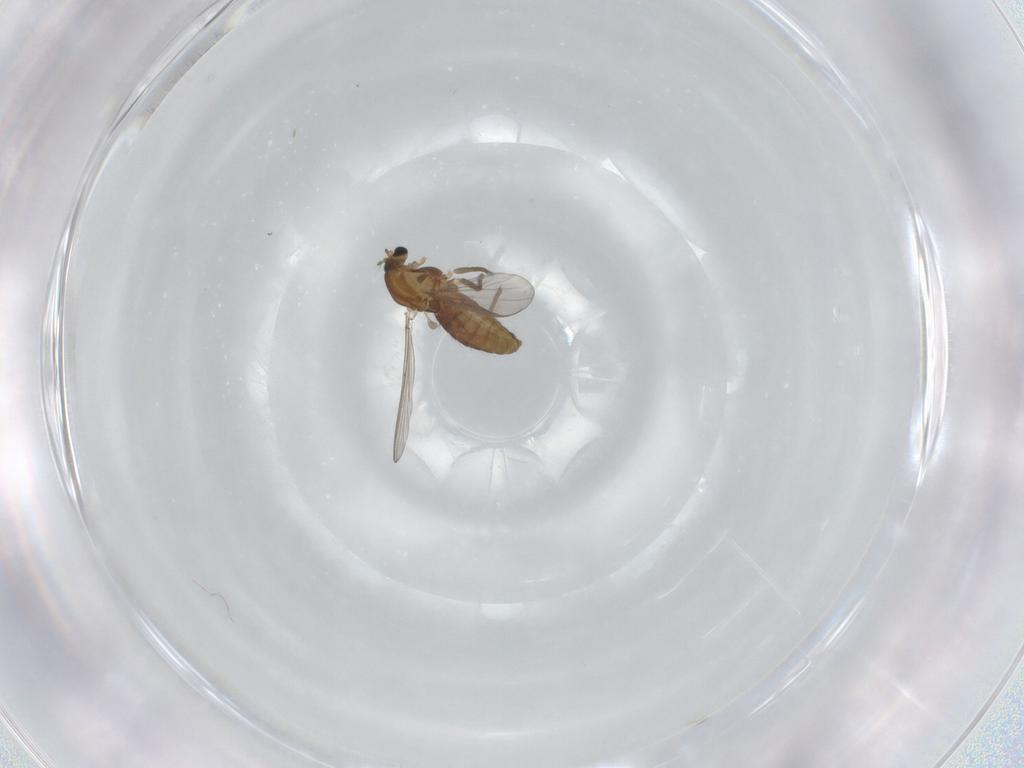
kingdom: Animalia
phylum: Arthropoda
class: Insecta
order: Diptera
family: Chironomidae
